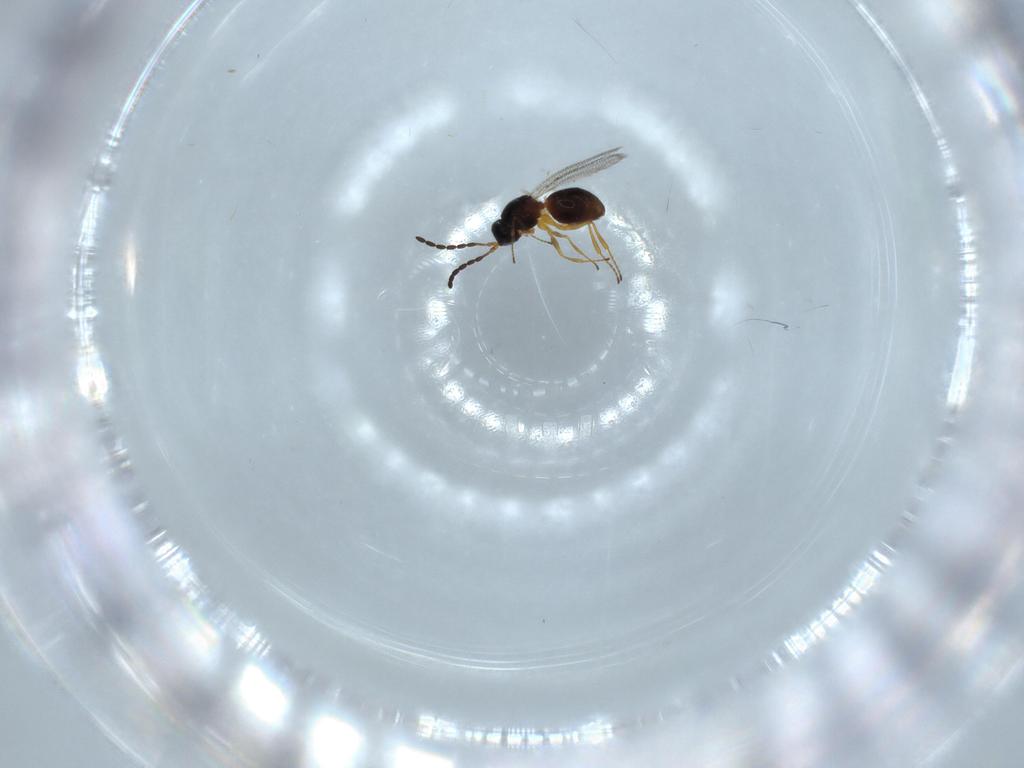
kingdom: Animalia
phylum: Arthropoda
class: Insecta
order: Hymenoptera
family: Figitidae
